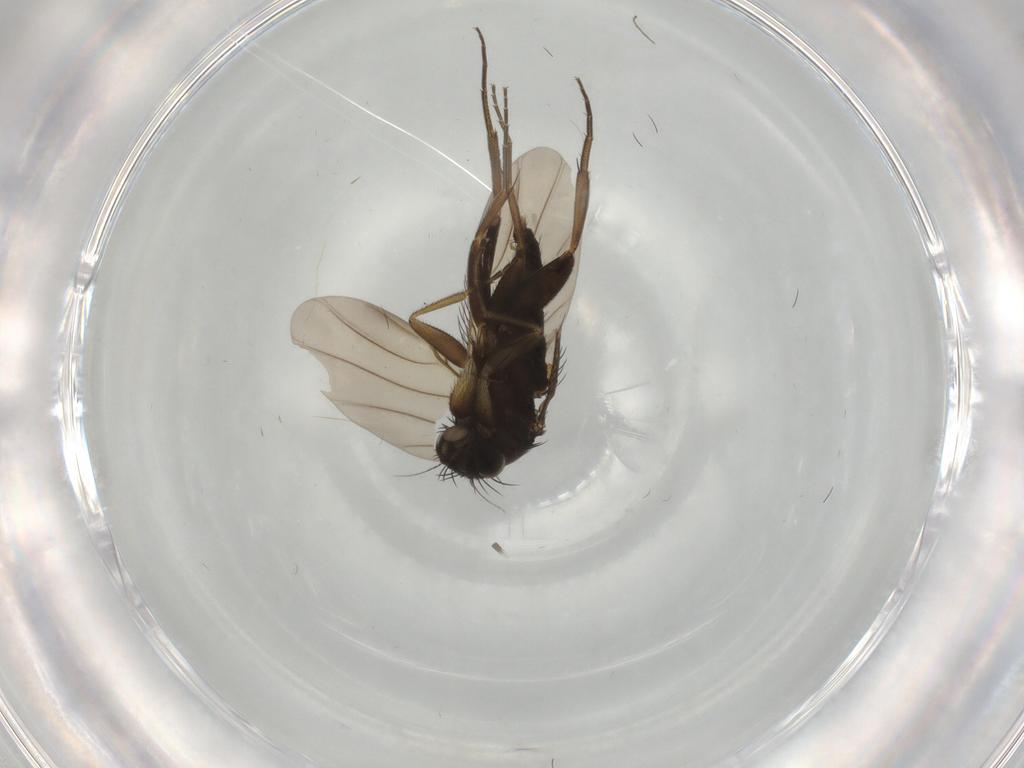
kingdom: Animalia
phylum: Arthropoda
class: Insecta
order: Diptera
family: Phoridae
